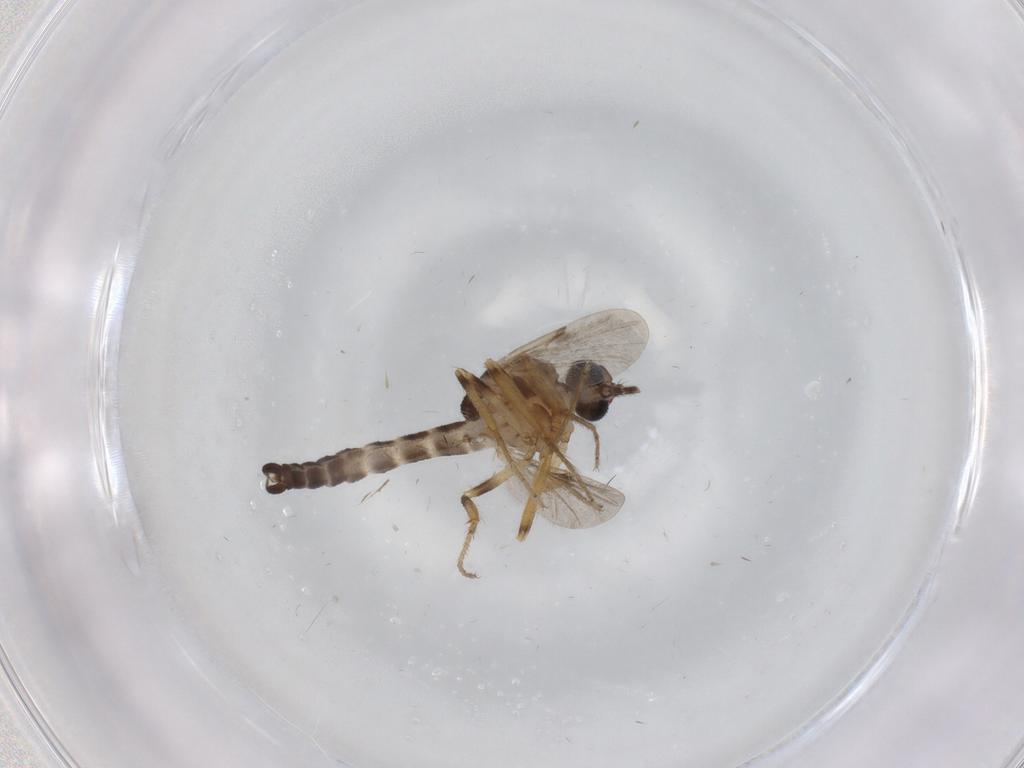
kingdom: Animalia
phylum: Arthropoda
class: Insecta
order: Diptera
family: Ceratopogonidae
